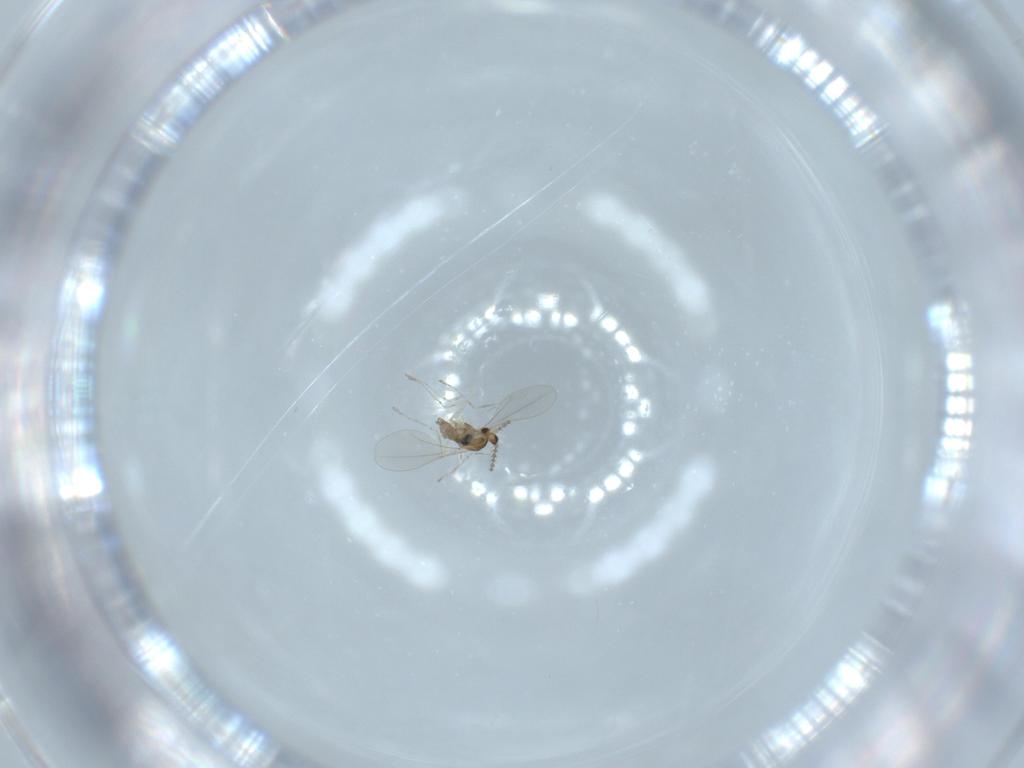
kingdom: Animalia
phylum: Arthropoda
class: Insecta
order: Diptera
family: Cecidomyiidae
